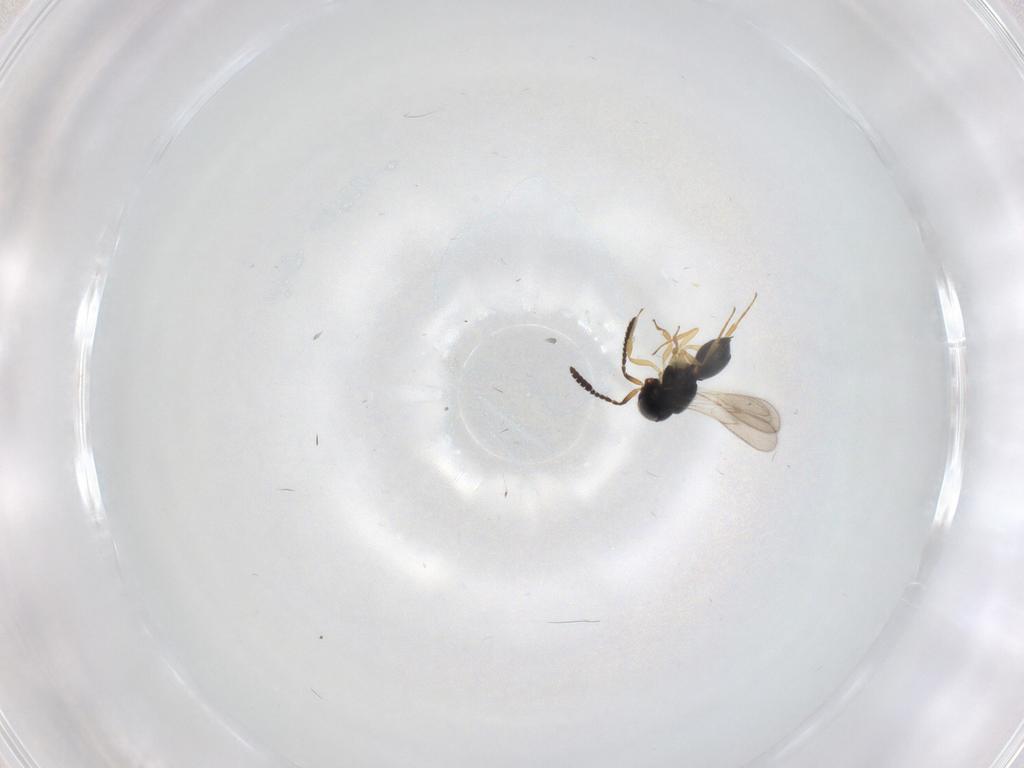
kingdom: Animalia
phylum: Arthropoda
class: Insecta
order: Hymenoptera
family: Scelionidae
